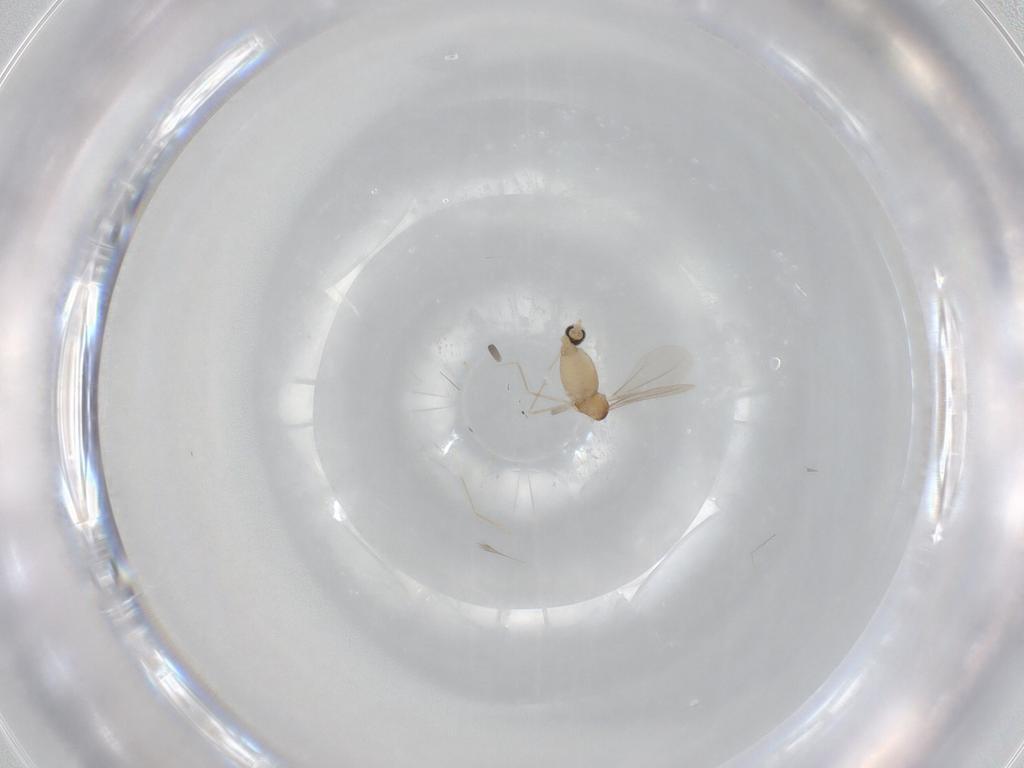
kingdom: Animalia
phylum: Arthropoda
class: Insecta
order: Diptera
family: Cecidomyiidae
